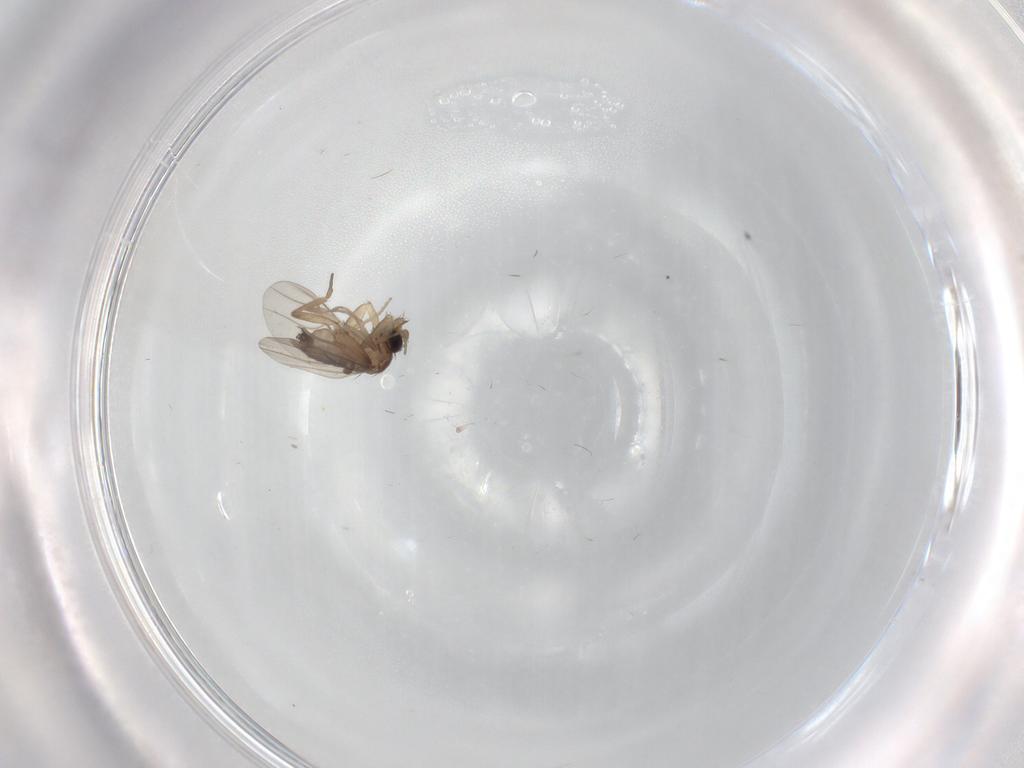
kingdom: Animalia
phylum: Arthropoda
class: Insecta
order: Diptera
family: Phoridae
